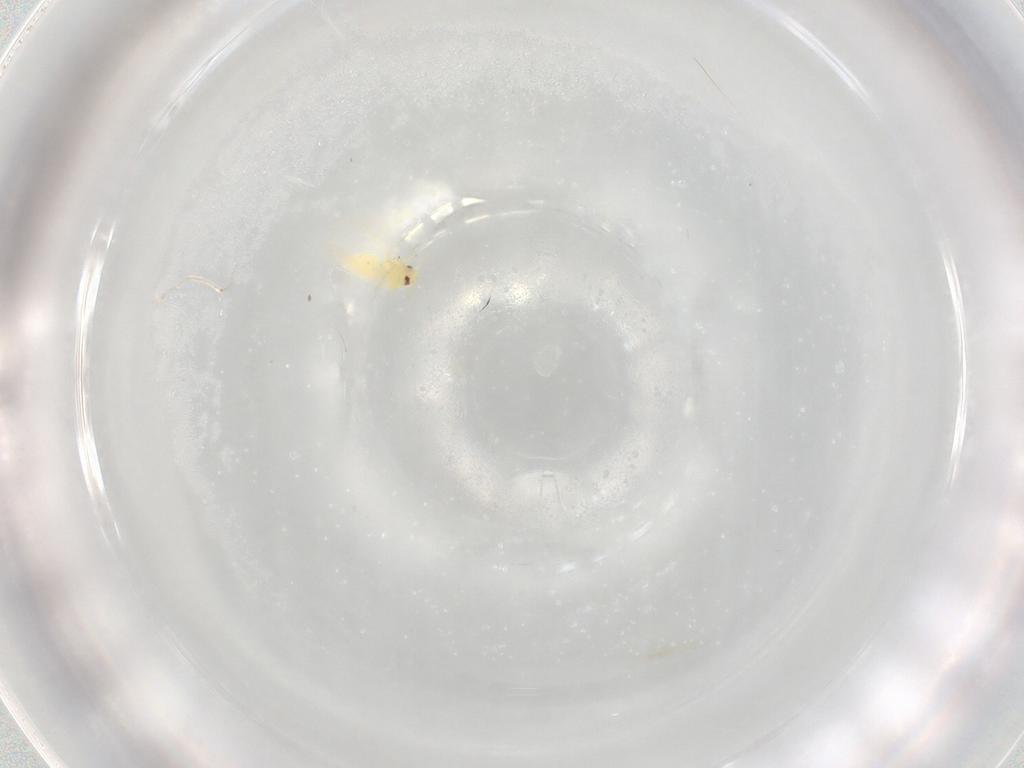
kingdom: Animalia
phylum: Arthropoda
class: Insecta
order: Hemiptera
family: Aleyrodidae
